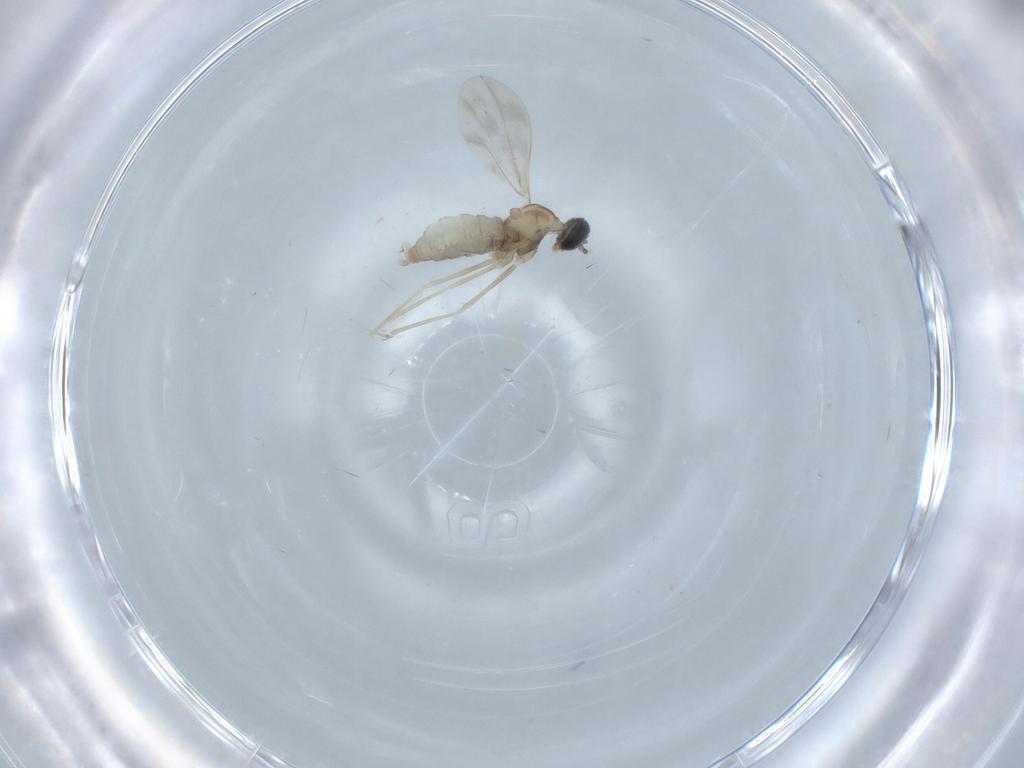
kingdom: Animalia
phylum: Arthropoda
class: Insecta
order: Diptera
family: Cecidomyiidae
